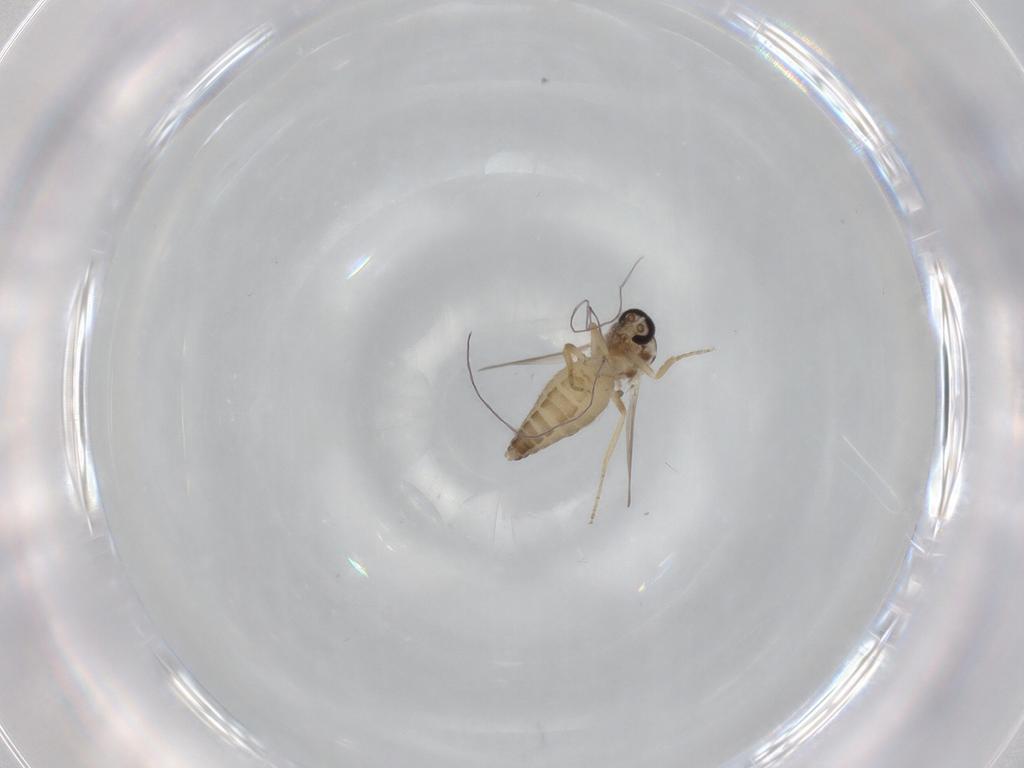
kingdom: Animalia
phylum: Arthropoda
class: Insecta
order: Diptera
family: Ceratopogonidae
